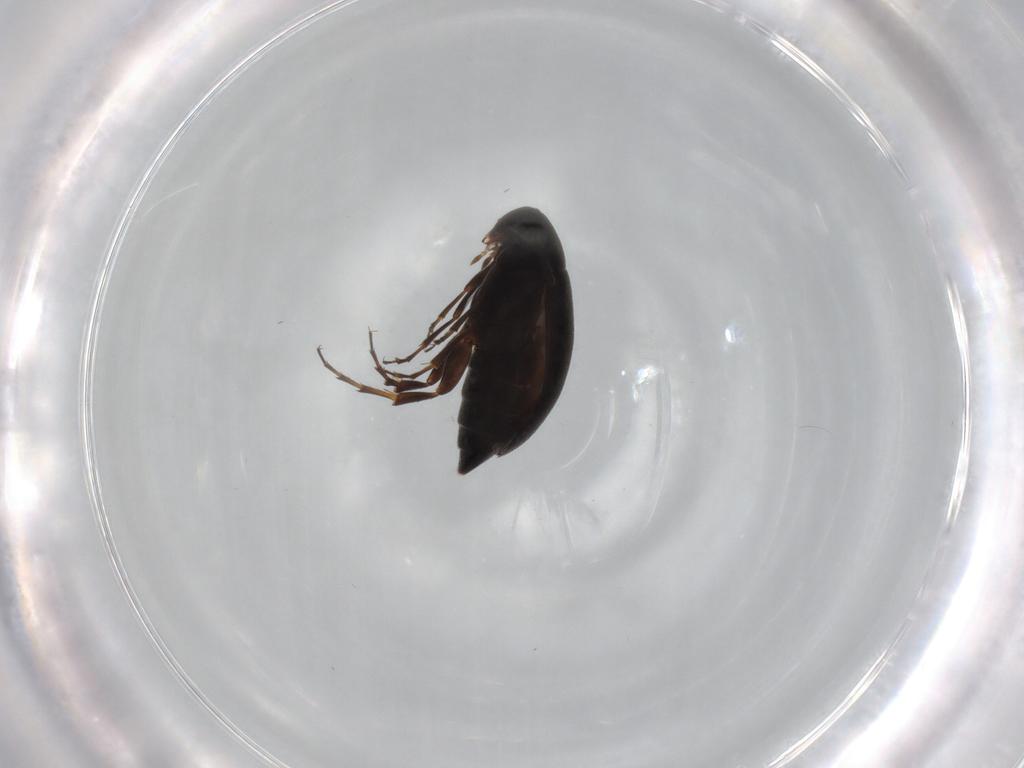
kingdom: Animalia
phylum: Arthropoda
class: Insecta
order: Coleoptera
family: Scraptiidae
